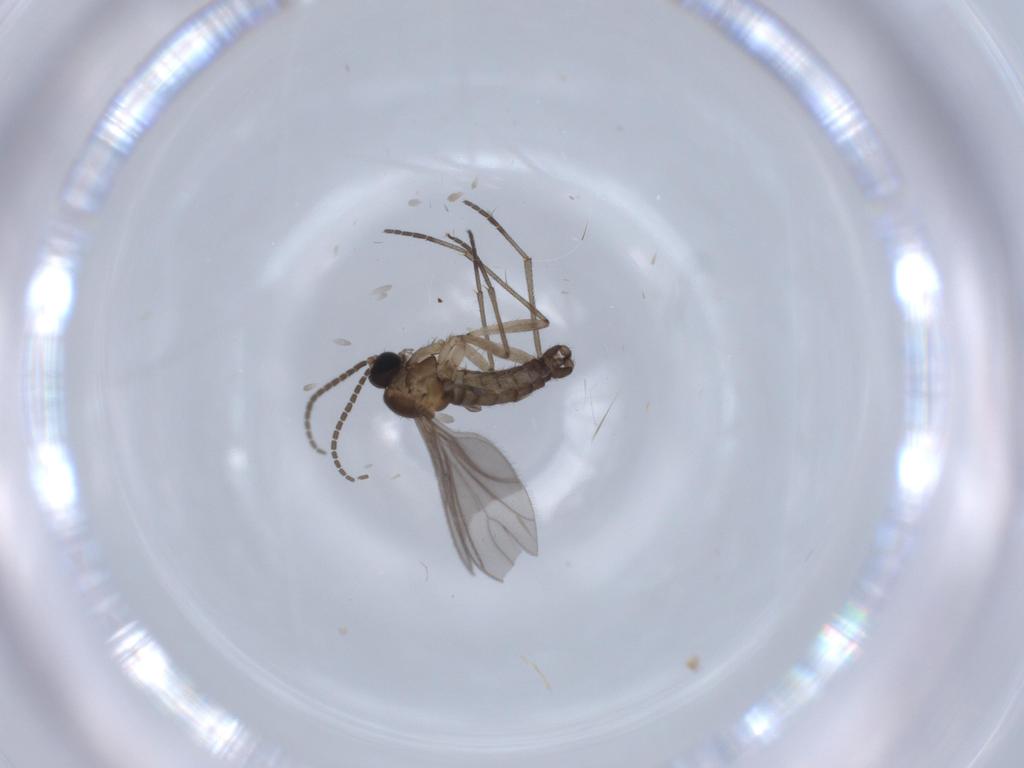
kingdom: Animalia
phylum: Arthropoda
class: Insecta
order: Diptera
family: Sciaridae
